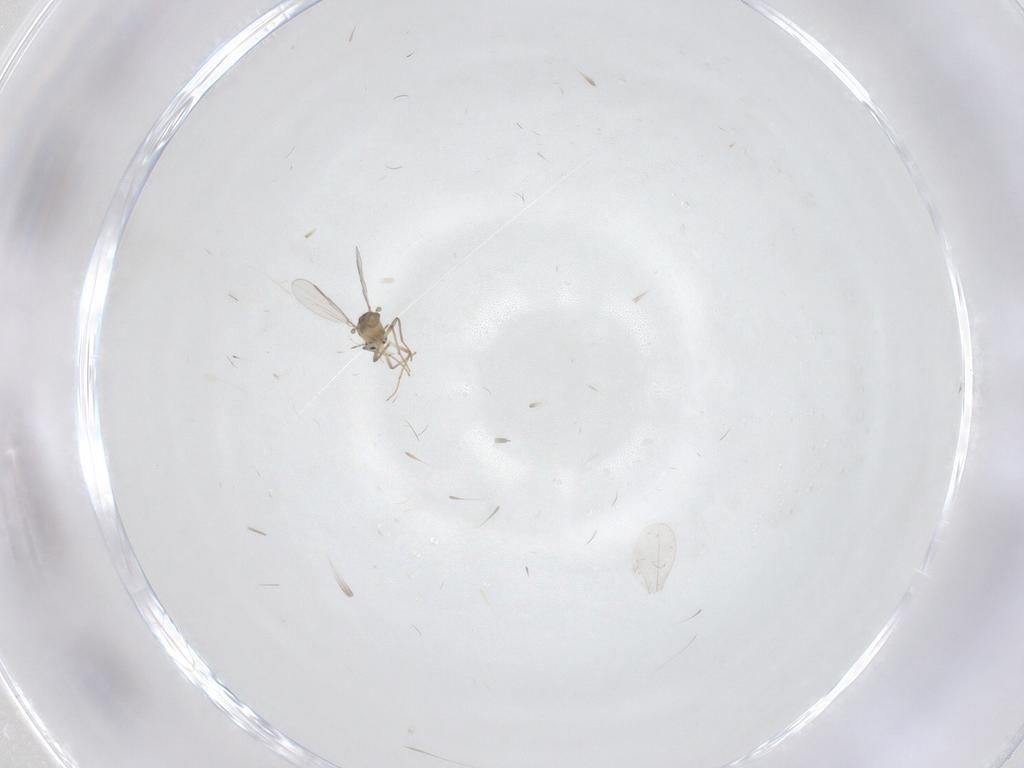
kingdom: Animalia
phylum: Arthropoda
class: Insecta
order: Diptera
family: Cecidomyiidae
